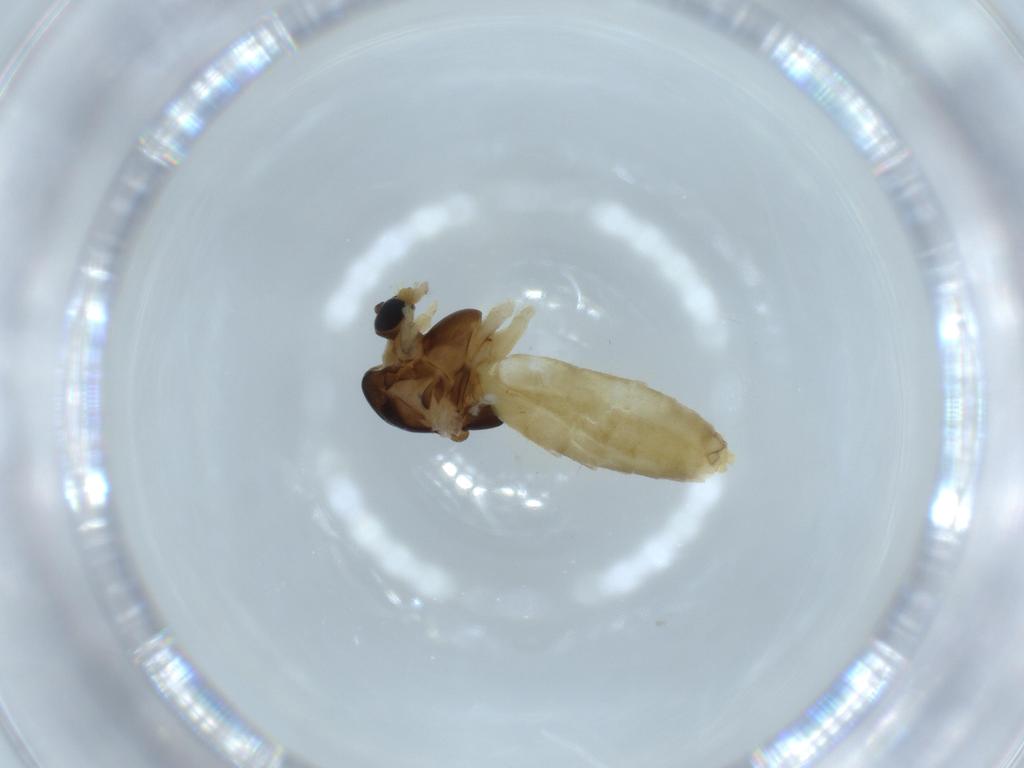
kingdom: Animalia
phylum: Arthropoda
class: Insecta
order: Diptera
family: Chironomidae
